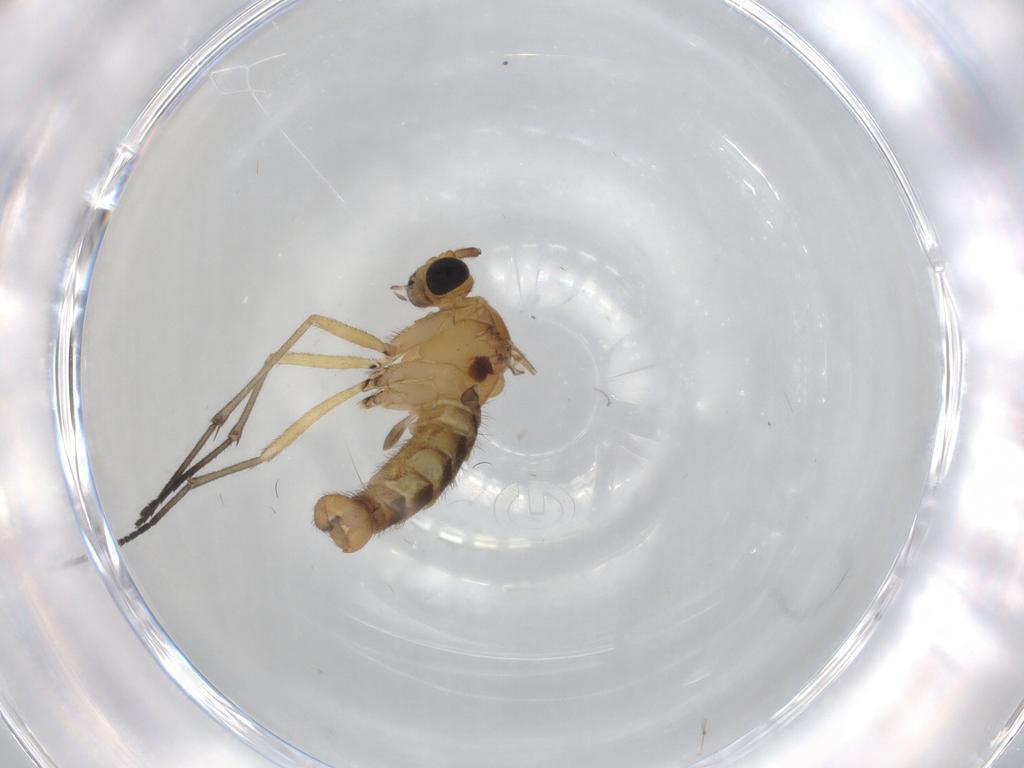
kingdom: Animalia
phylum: Arthropoda
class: Insecta
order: Diptera
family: Sciaridae
